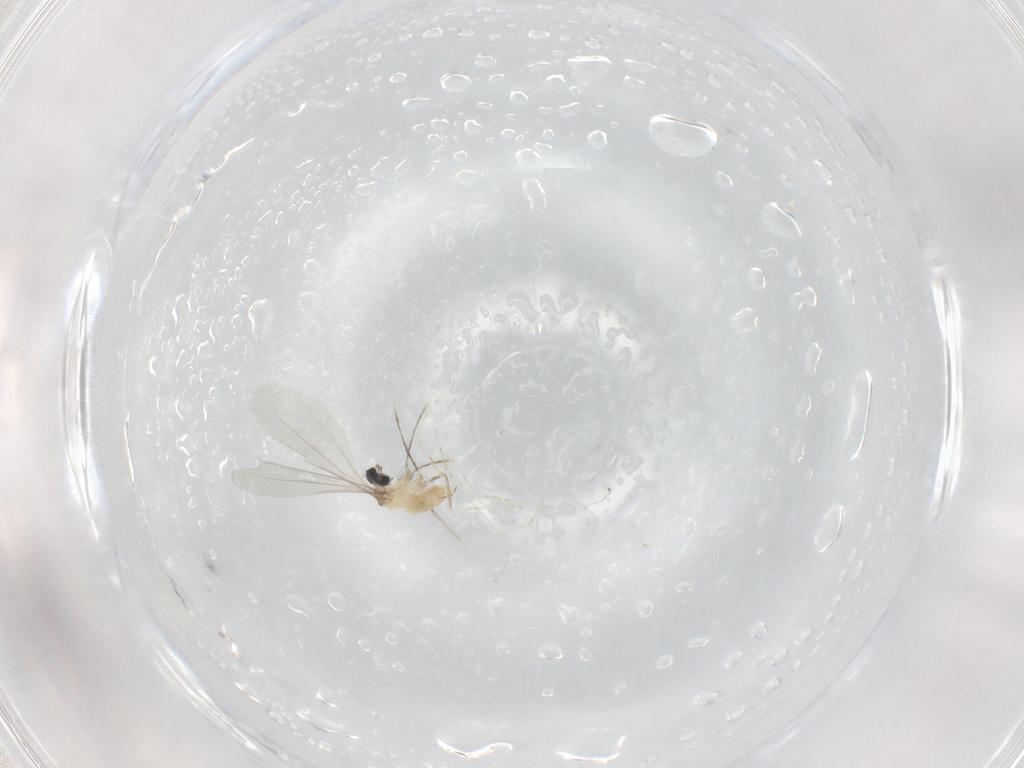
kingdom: Animalia
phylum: Arthropoda
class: Insecta
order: Diptera
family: Cecidomyiidae
